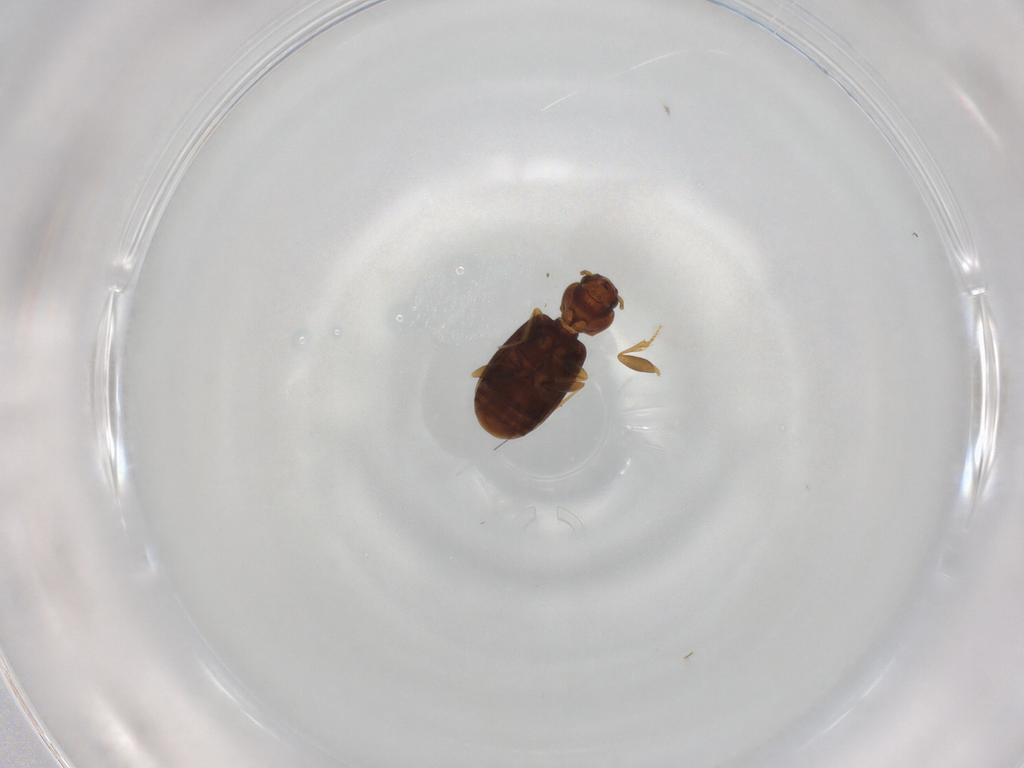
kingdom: Animalia
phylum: Arthropoda
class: Insecta
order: Coleoptera
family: Carabidae
